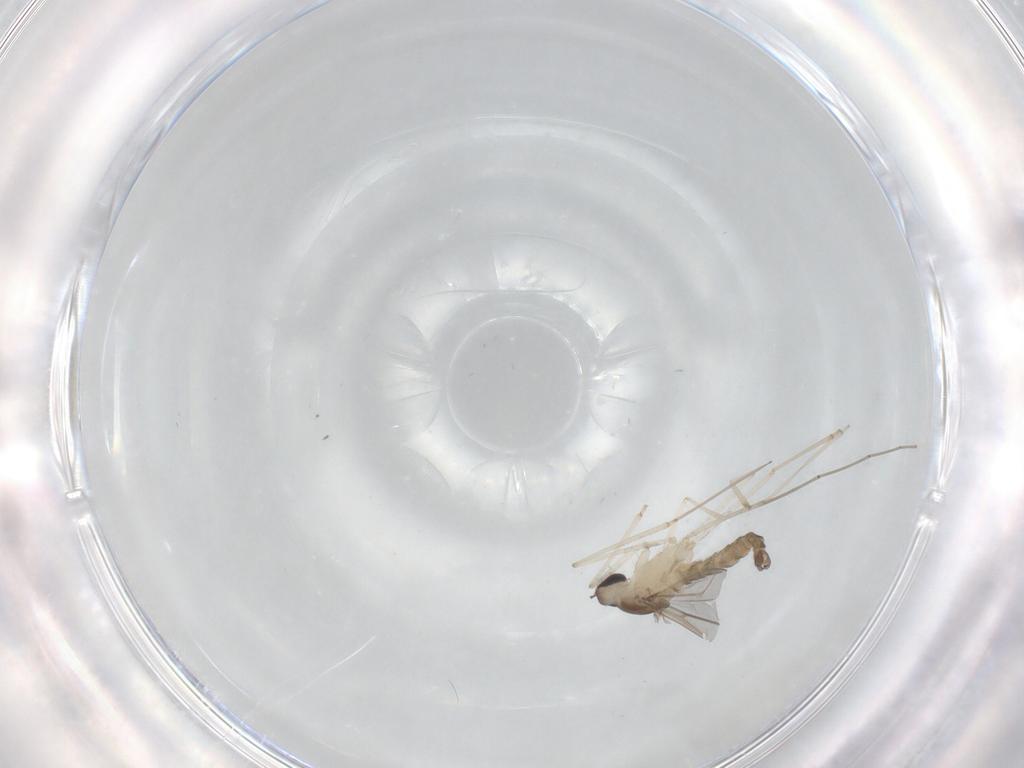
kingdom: Animalia
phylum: Arthropoda
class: Insecta
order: Diptera
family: Cecidomyiidae
